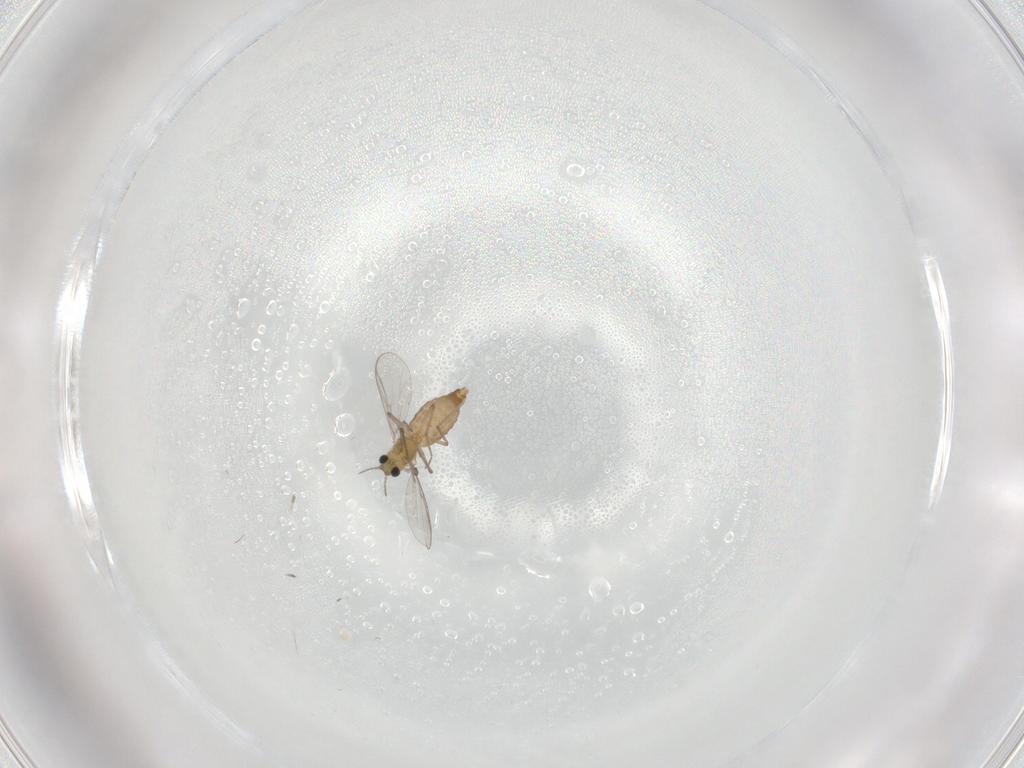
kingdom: Animalia
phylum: Arthropoda
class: Insecta
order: Diptera
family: Chironomidae
